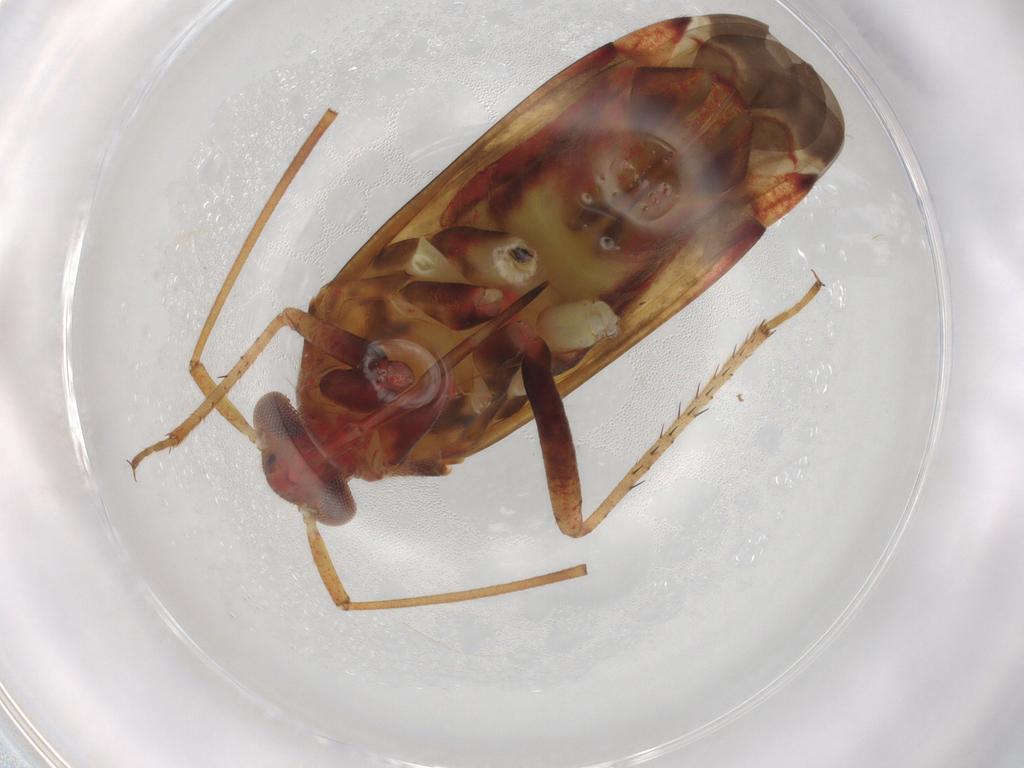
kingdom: Animalia
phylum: Arthropoda
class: Insecta
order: Hemiptera
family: Miridae
